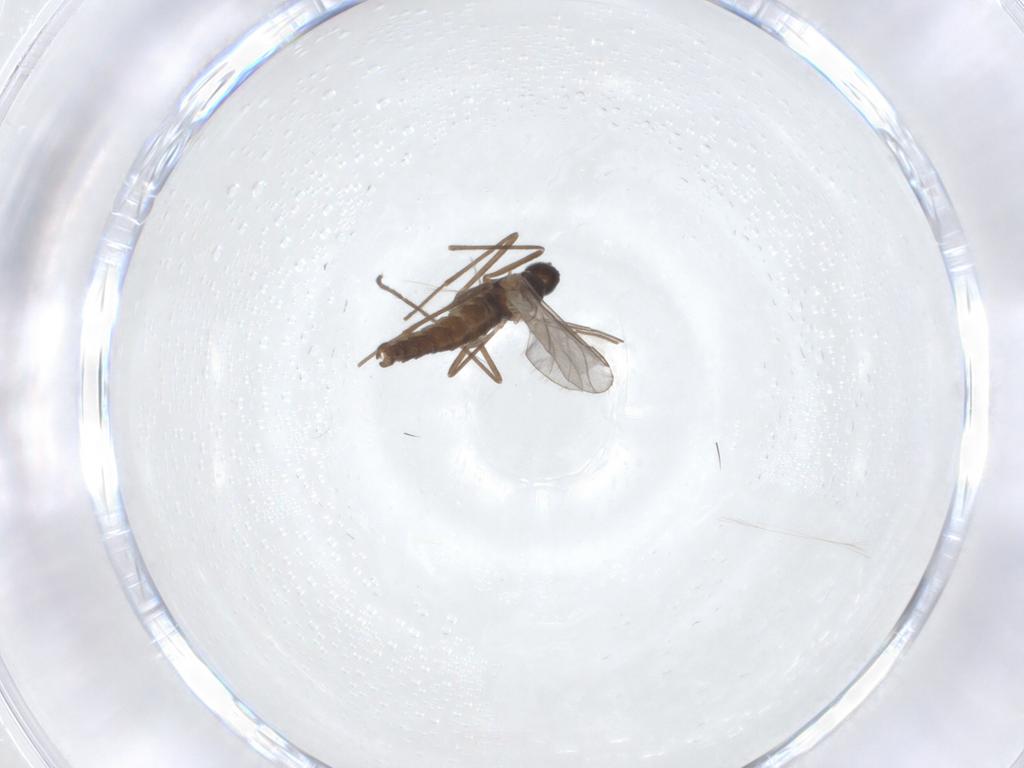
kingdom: Animalia
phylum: Arthropoda
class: Insecta
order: Diptera
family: Cecidomyiidae
